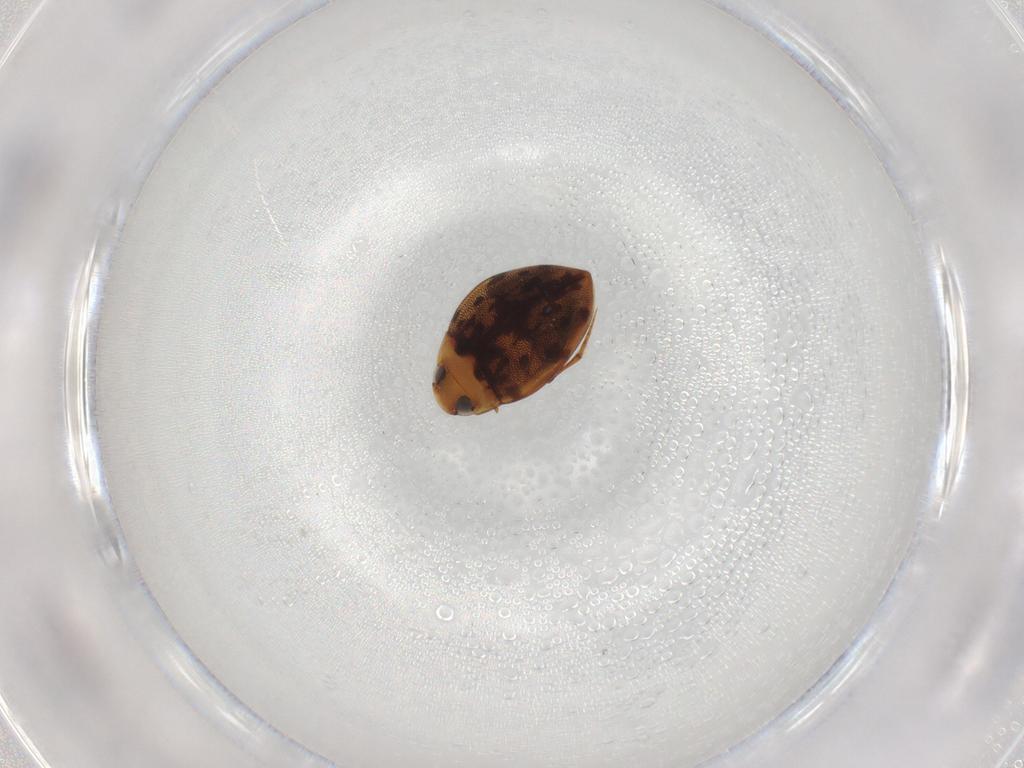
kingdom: Animalia
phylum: Arthropoda
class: Insecta
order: Coleoptera
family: Dytiscidae
